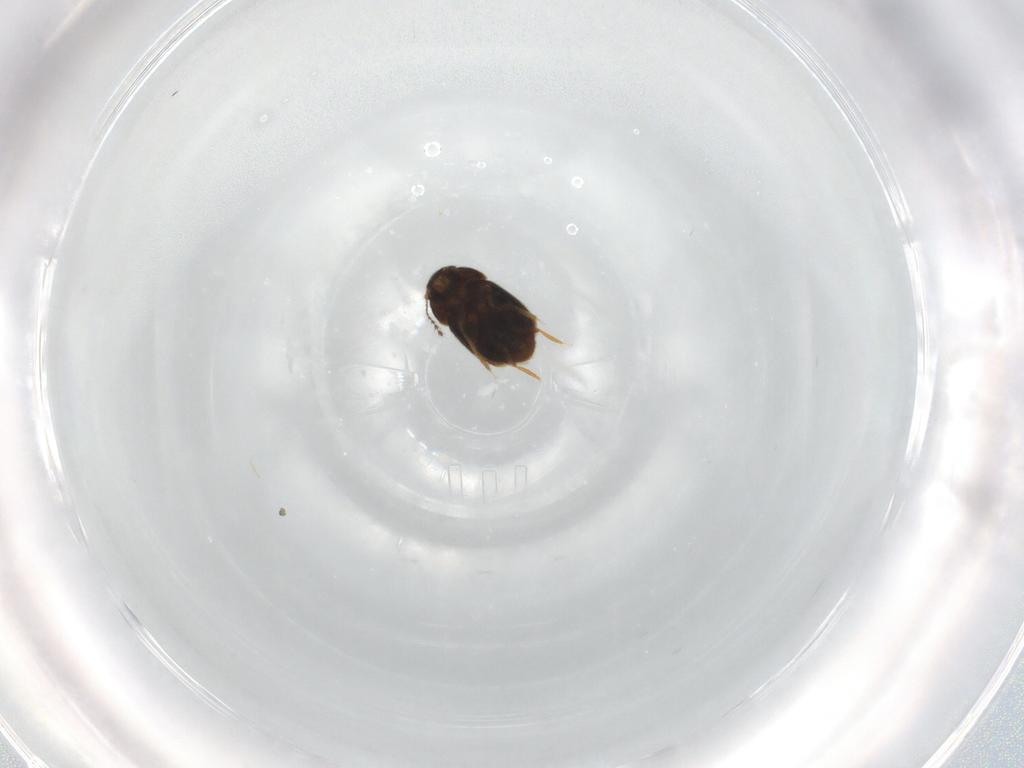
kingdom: Animalia
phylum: Arthropoda
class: Insecta
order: Coleoptera
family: Ptiliidae
